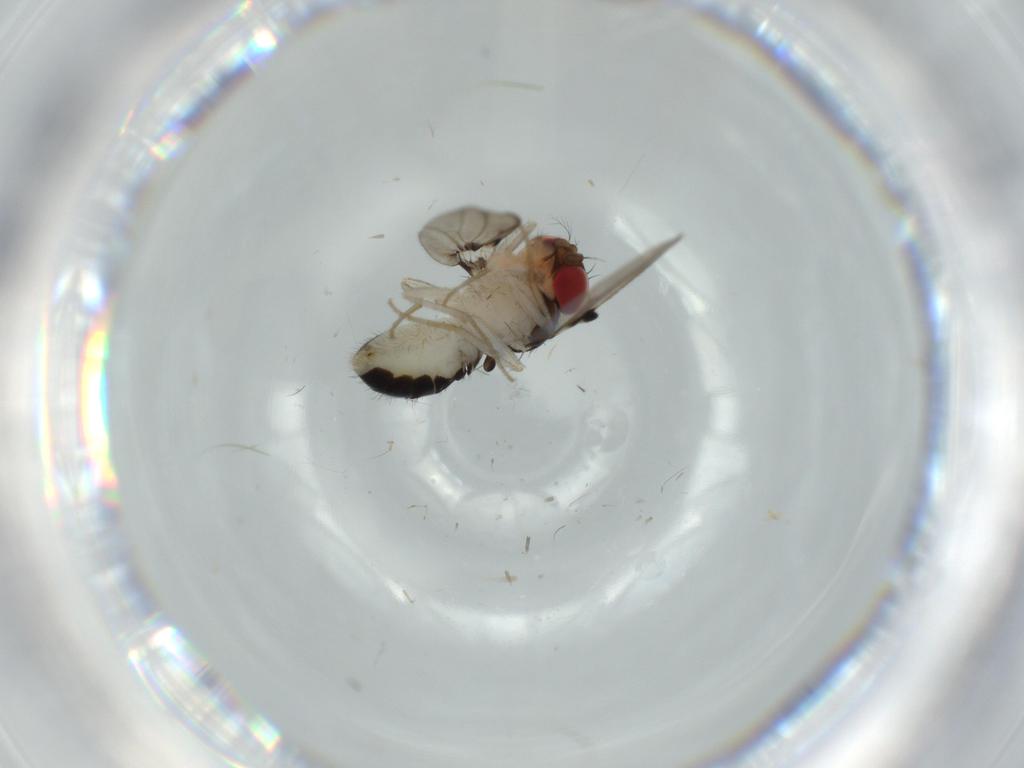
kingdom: Animalia
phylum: Arthropoda
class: Insecta
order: Diptera
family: Drosophilidae
